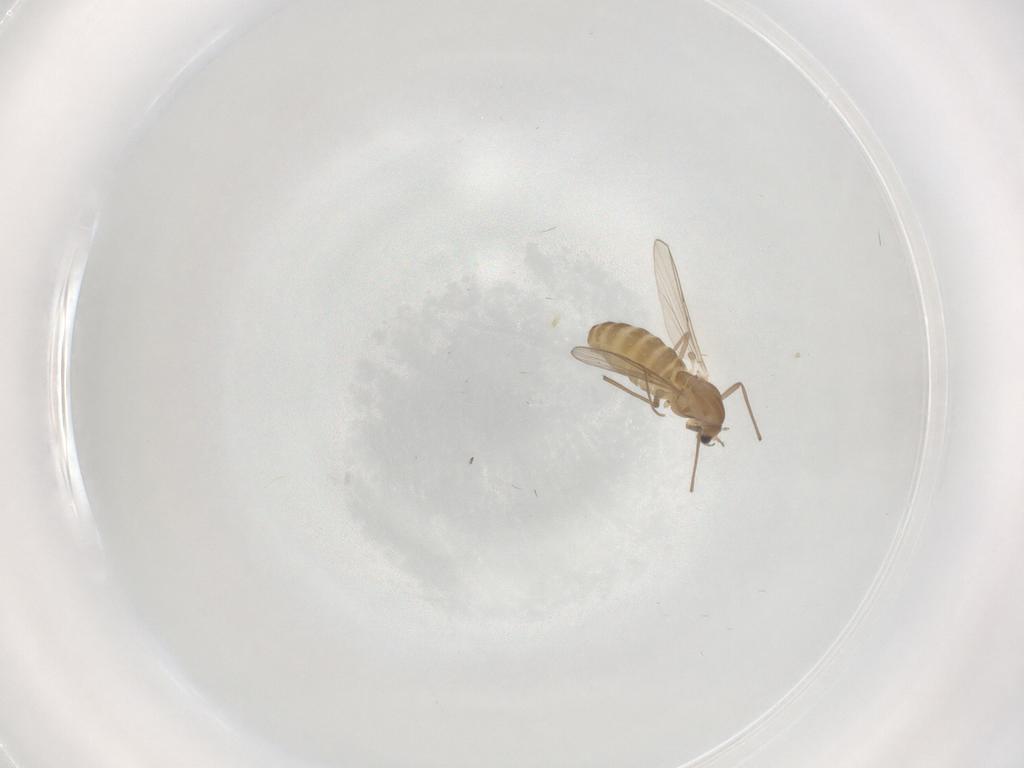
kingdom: Animalia
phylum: Arthropoda
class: Insecta
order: Diptera
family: Chironomidae
